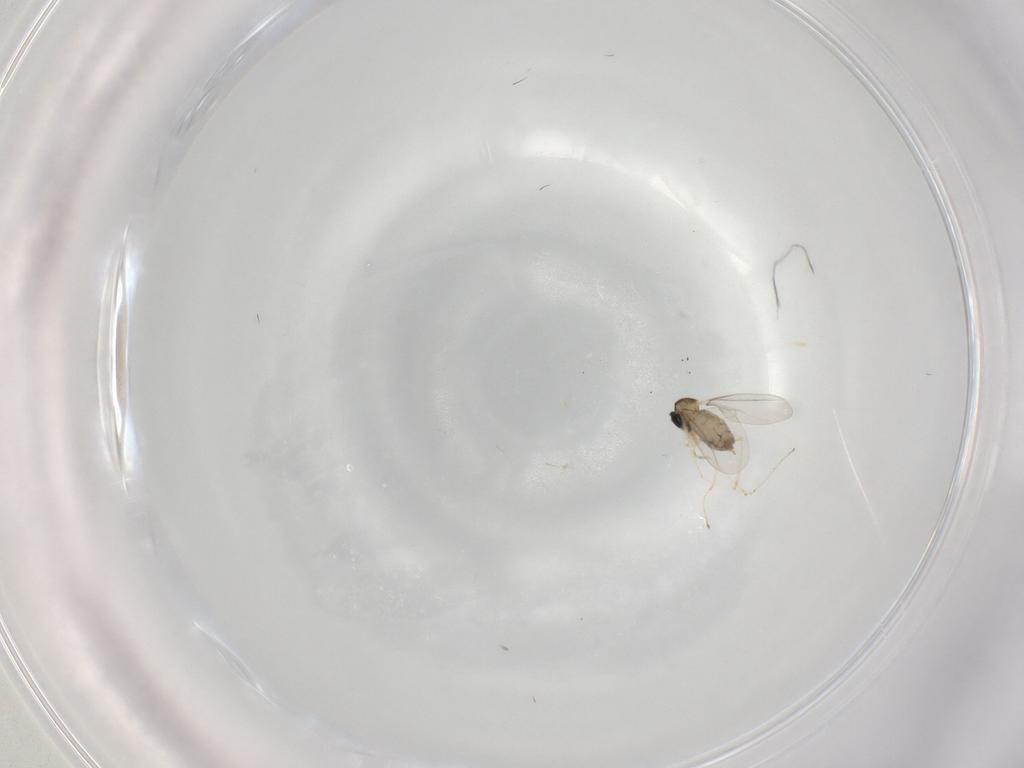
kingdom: Animalia
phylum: Arthropoda
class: Insecta
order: Diptera
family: Cecidomyiidae
